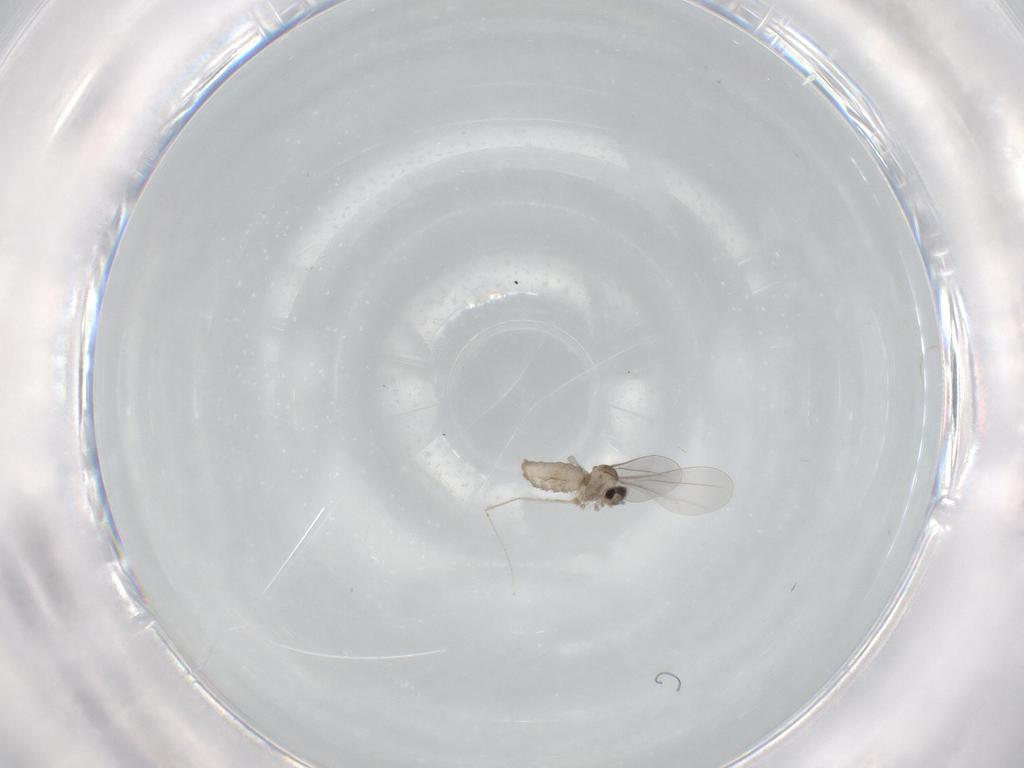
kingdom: Animalia
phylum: Arthropoda
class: Insecta
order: Diptera
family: Cecidomyiidae
